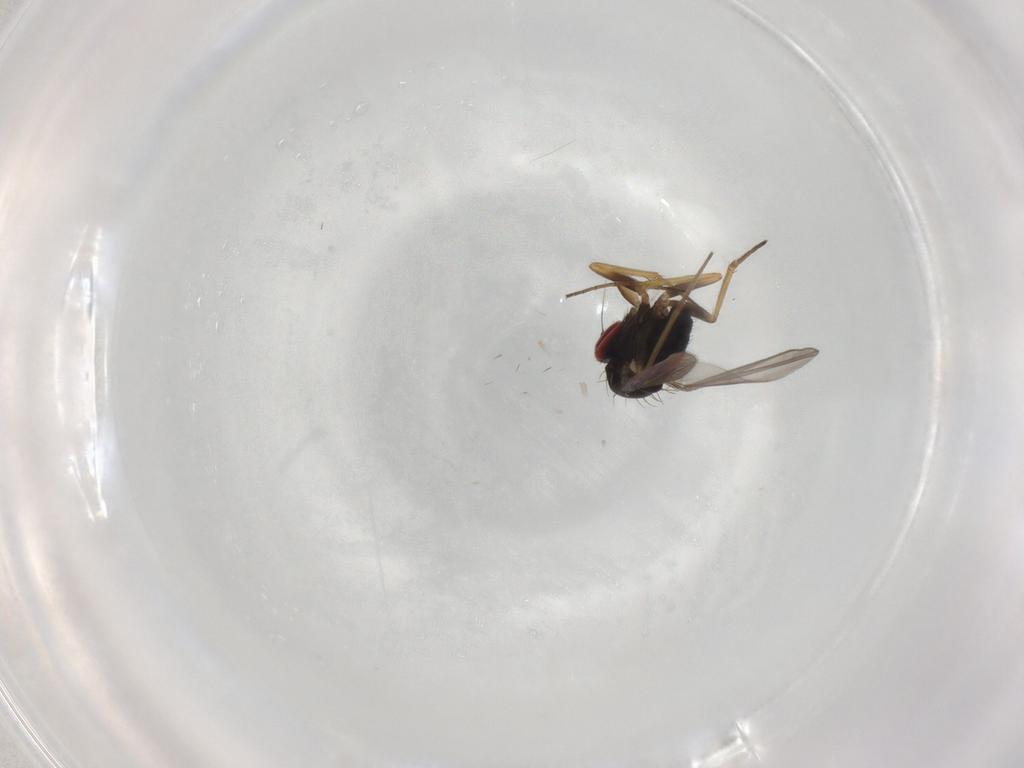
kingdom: Animalia
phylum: Arthropoda
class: Insecta
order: Diptera
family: Dolichopodidae
